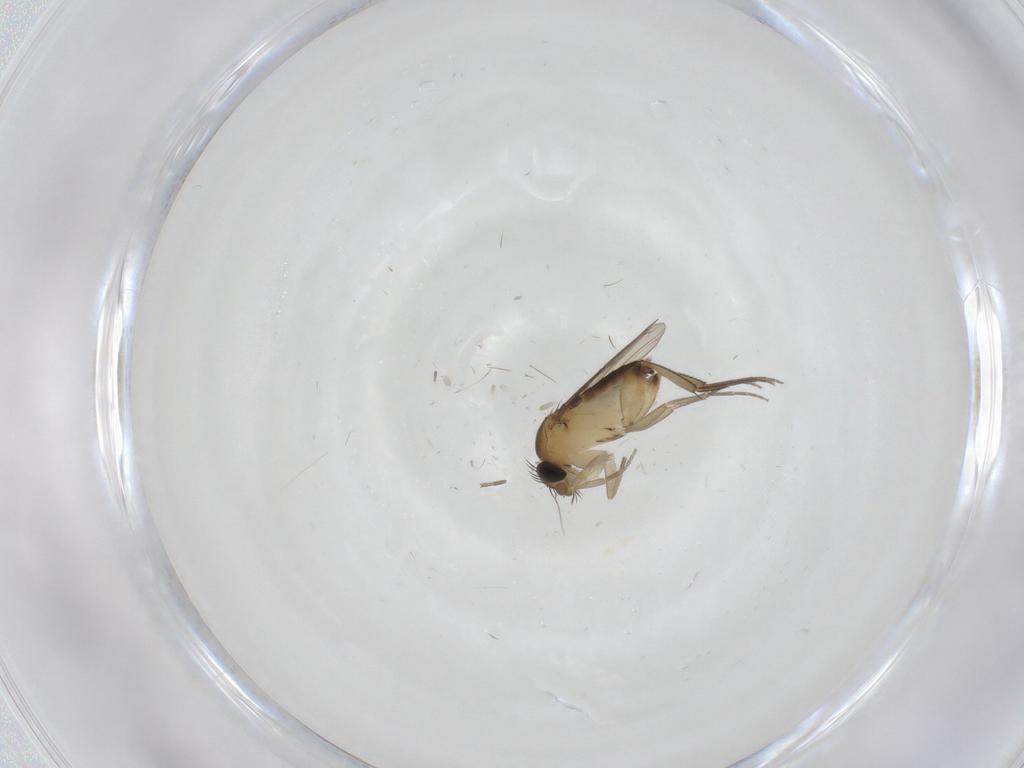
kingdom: Animalia
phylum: Arthropoda
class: Insecta
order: Diptera
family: Phoridae
